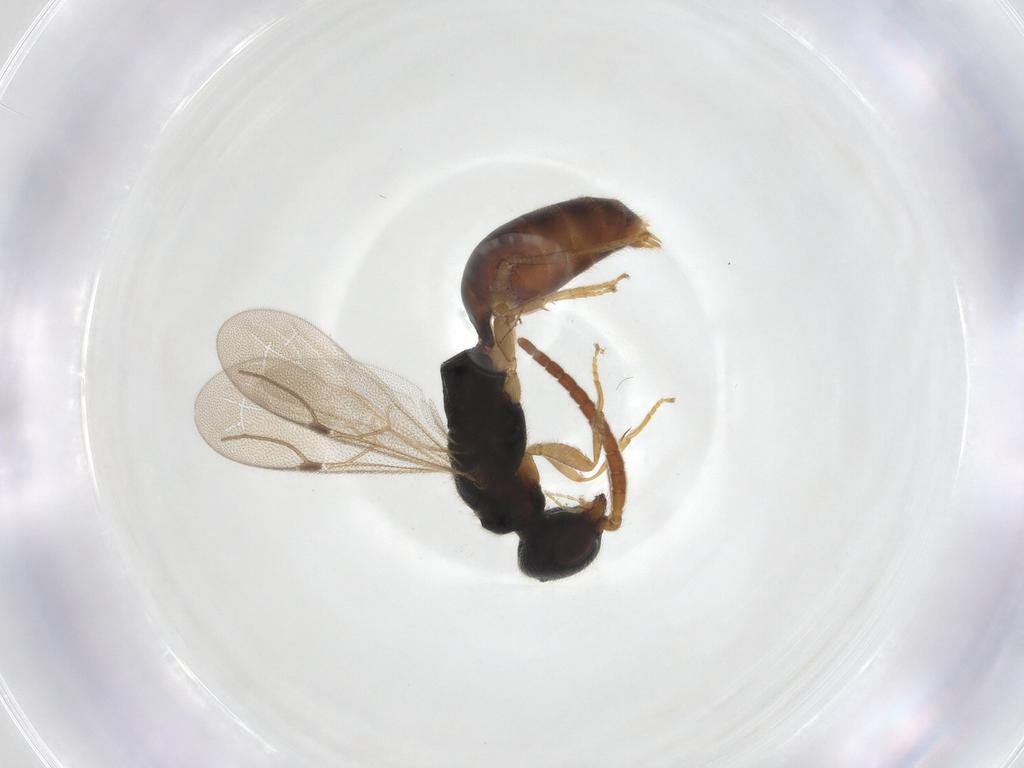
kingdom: Animalia
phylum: Arthropoda
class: Insecta
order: Hymenoptera
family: Bethylidae
